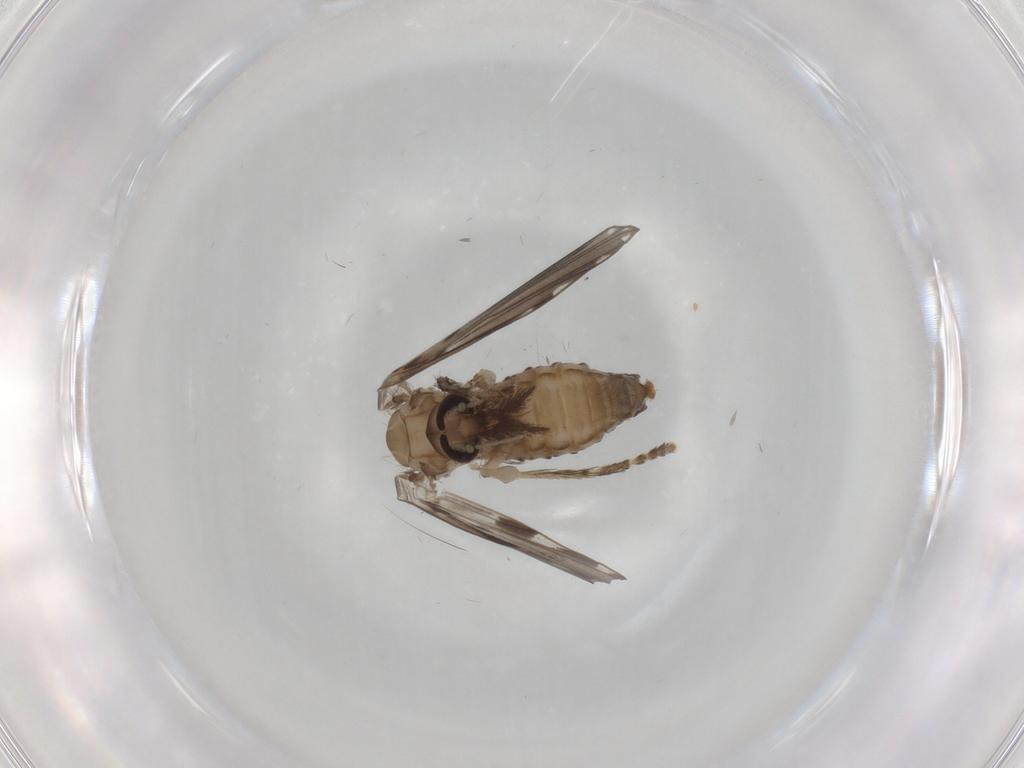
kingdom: Animalia
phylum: Arthropoda
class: Insecta
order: Diptera
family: Psychodidae
